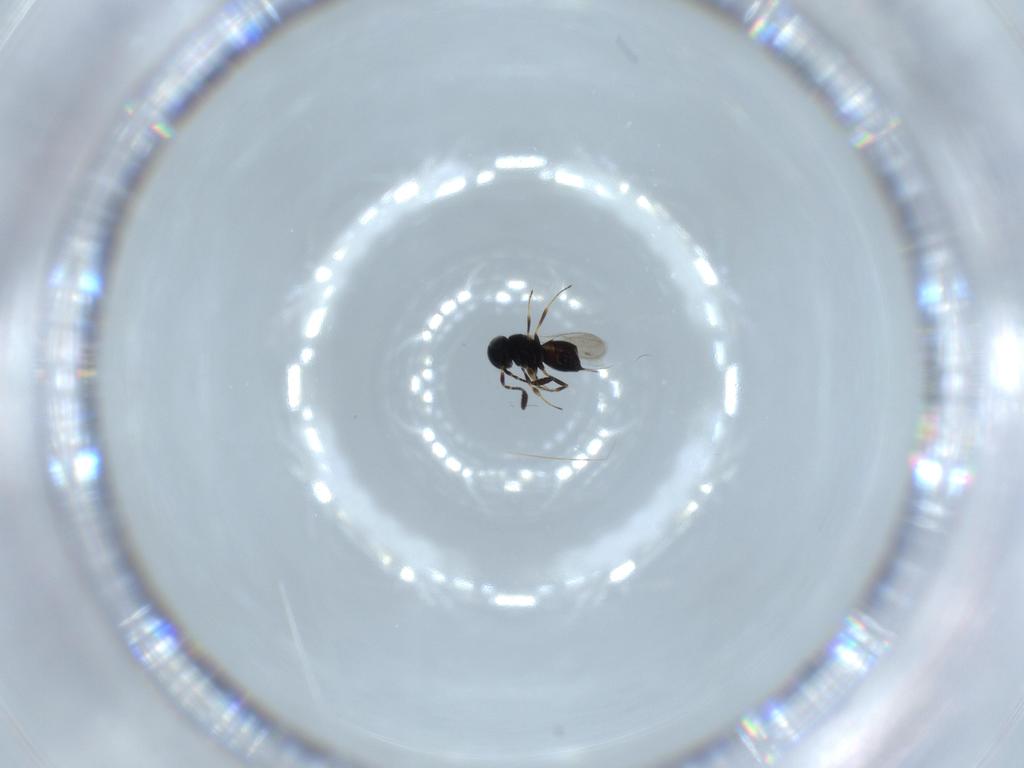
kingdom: Animalia
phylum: Arthropoda
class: Insecta
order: Hymenoptera
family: Scelionidae
